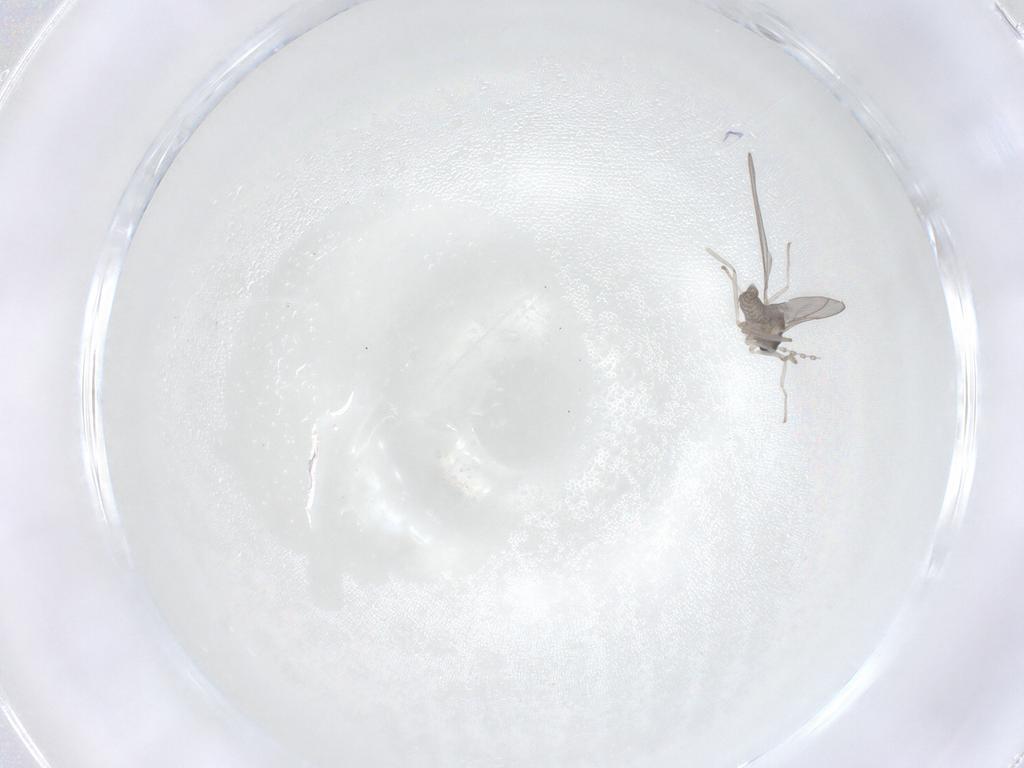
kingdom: Animalia
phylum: Arthropoda
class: Insecta
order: Diptera
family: Cecidomyiidae
